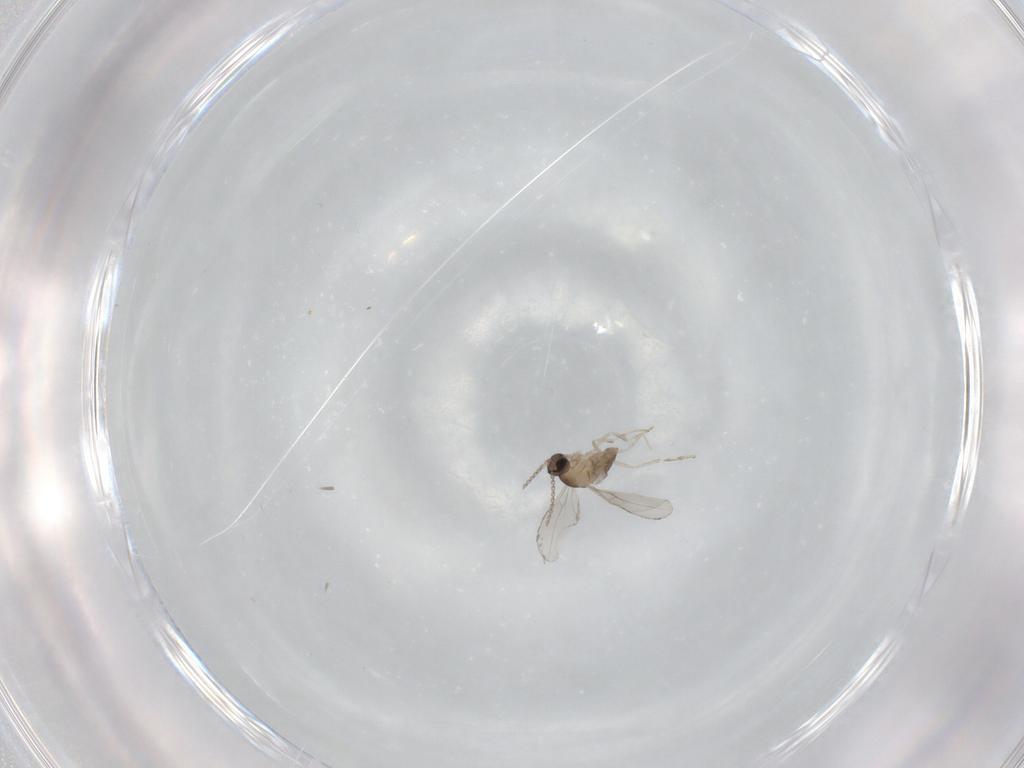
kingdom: Animalia
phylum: Arthropoda
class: Insecta
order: Diptera
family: Cecidomyiidae
